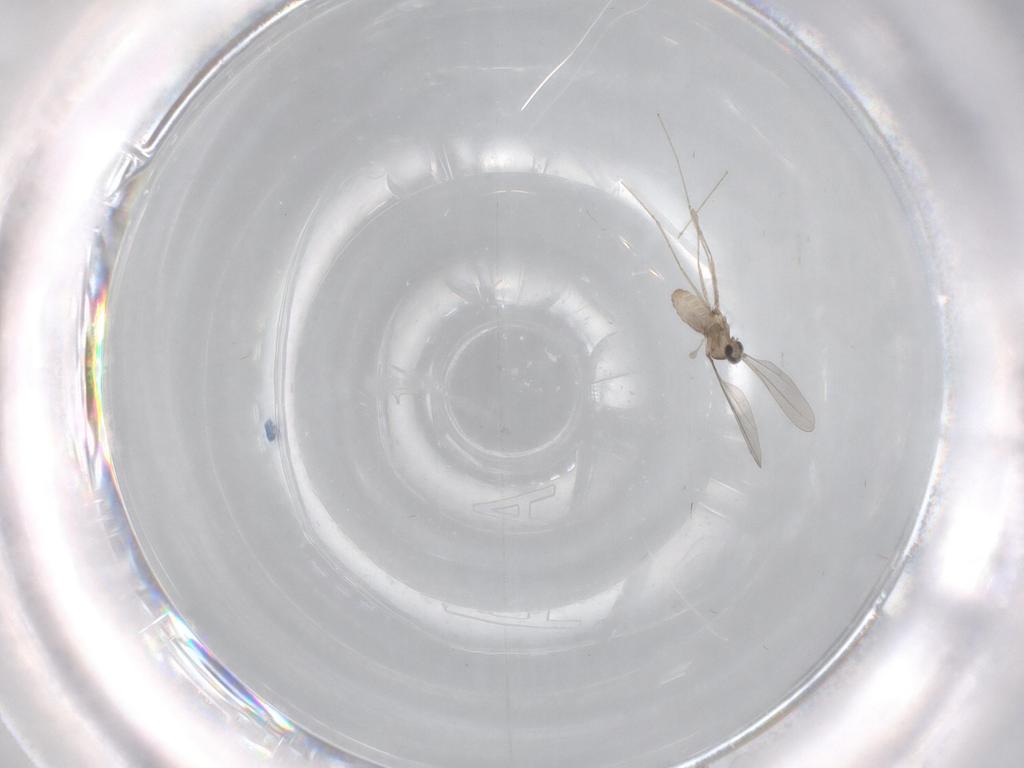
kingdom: Animalia
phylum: Arthropoda
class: Insecta
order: Diptera
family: Cecidomyiidae
